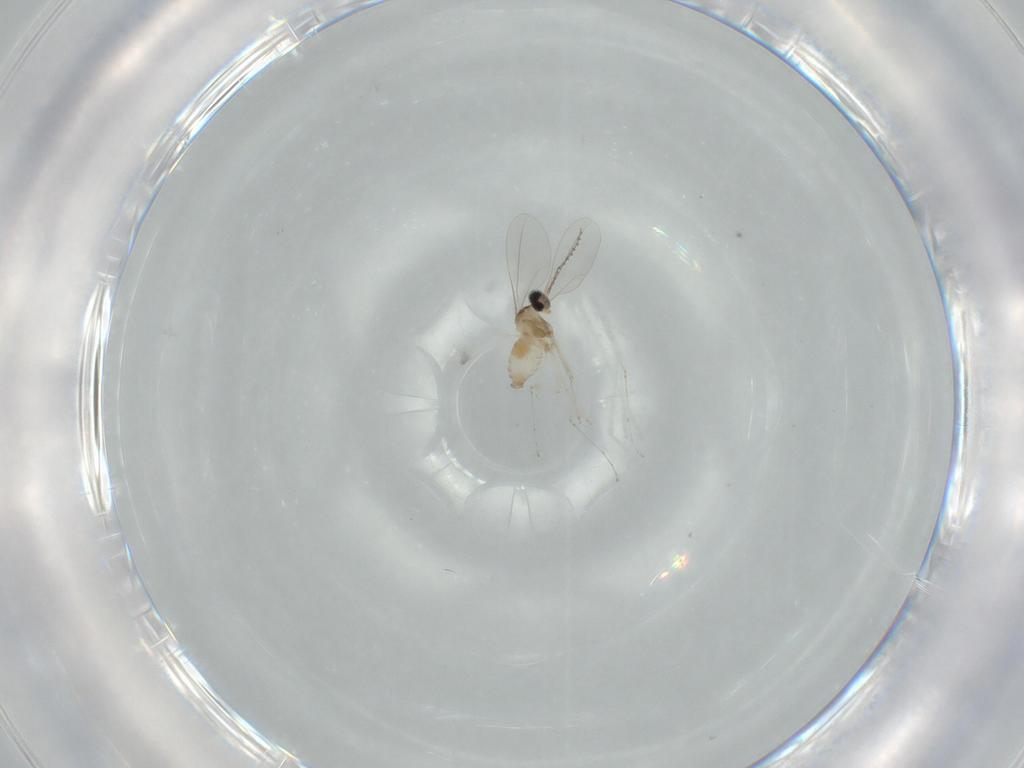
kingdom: Animalia
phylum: Arthropoda
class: Insecta
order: Diptera
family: Cecidomyiidae
